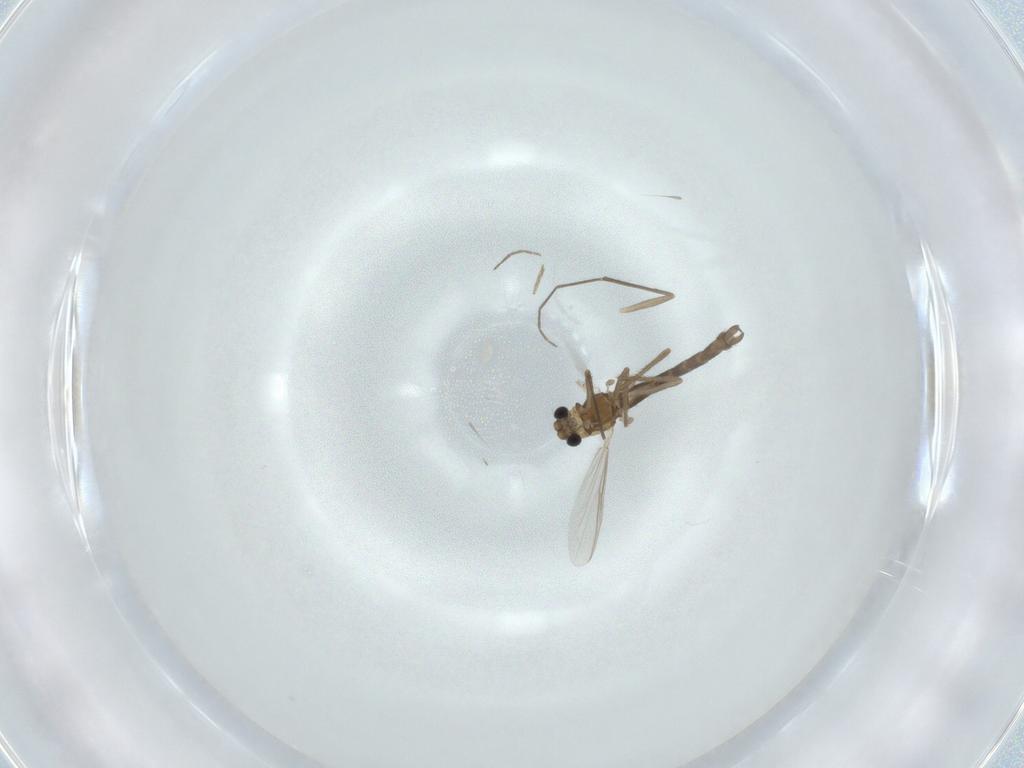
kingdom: Animalia
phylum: Arthropoda
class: Insecta
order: Diptera
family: Chironomidae
